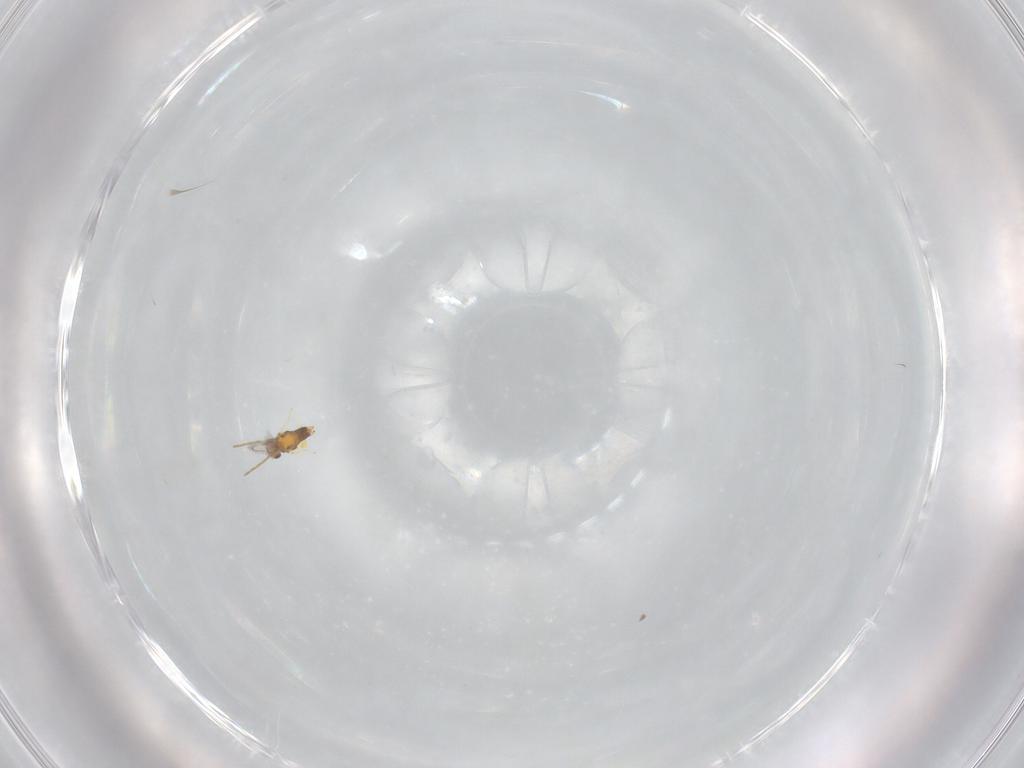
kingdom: Animalia
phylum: Arthropoda
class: Insecta
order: Hymenoptera
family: Aphelinidae
